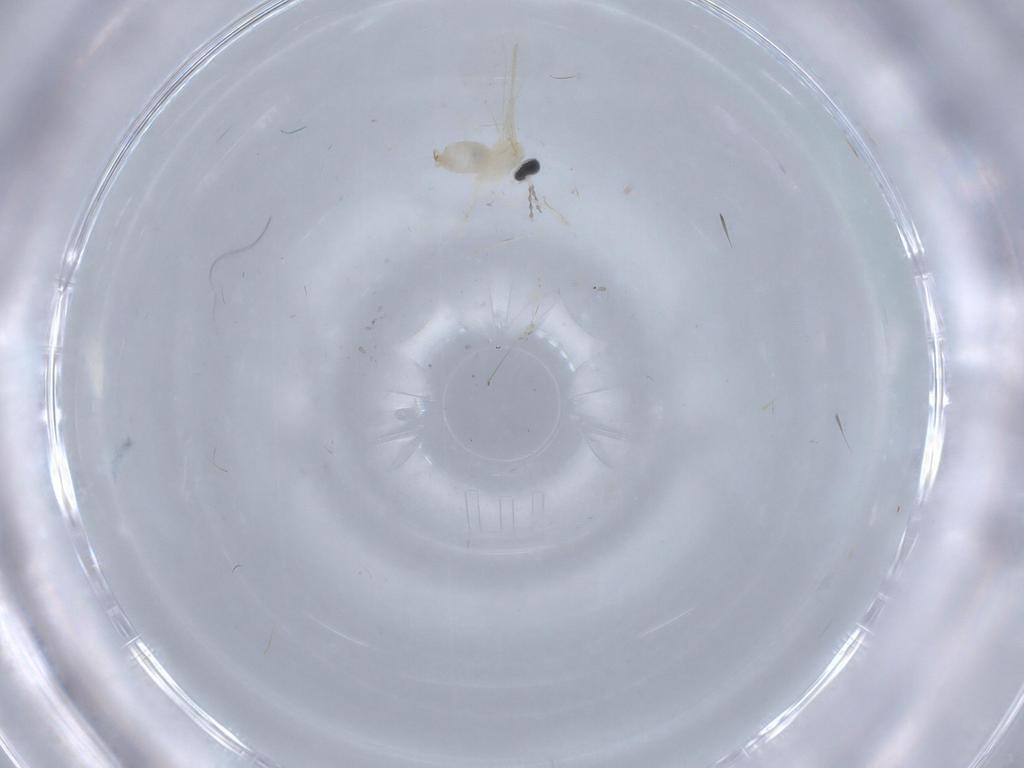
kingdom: Animalia
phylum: Arthropoda
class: Insecta
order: Diptera
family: Cecidomyiidae
